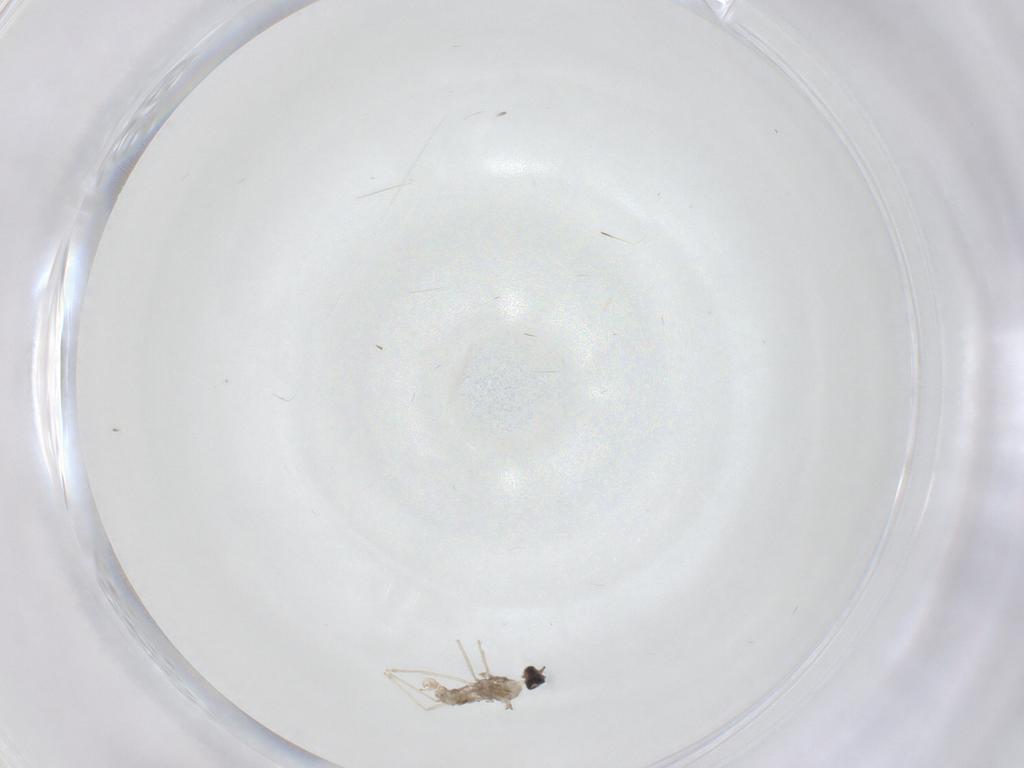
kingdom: Animalia
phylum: Arthropoda
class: Insecta
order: Diptera
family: Cecidomyiidae
